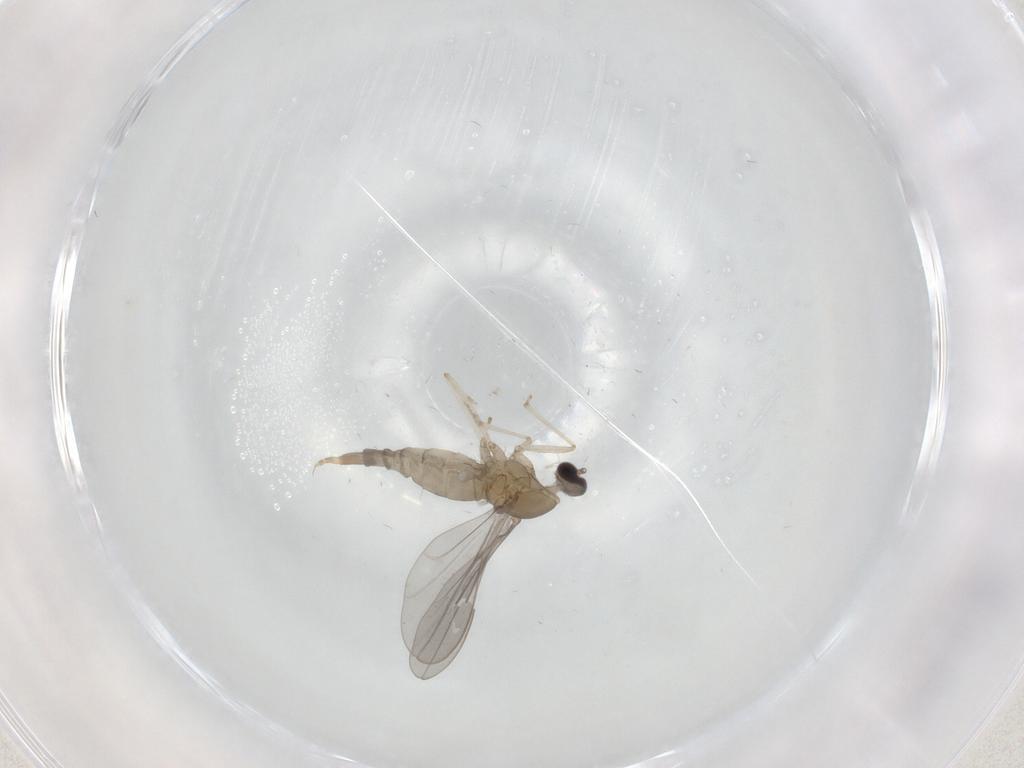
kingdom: Animalia
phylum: Arthropoda
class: Insecta
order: Diptera
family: Cecidomyiidae
